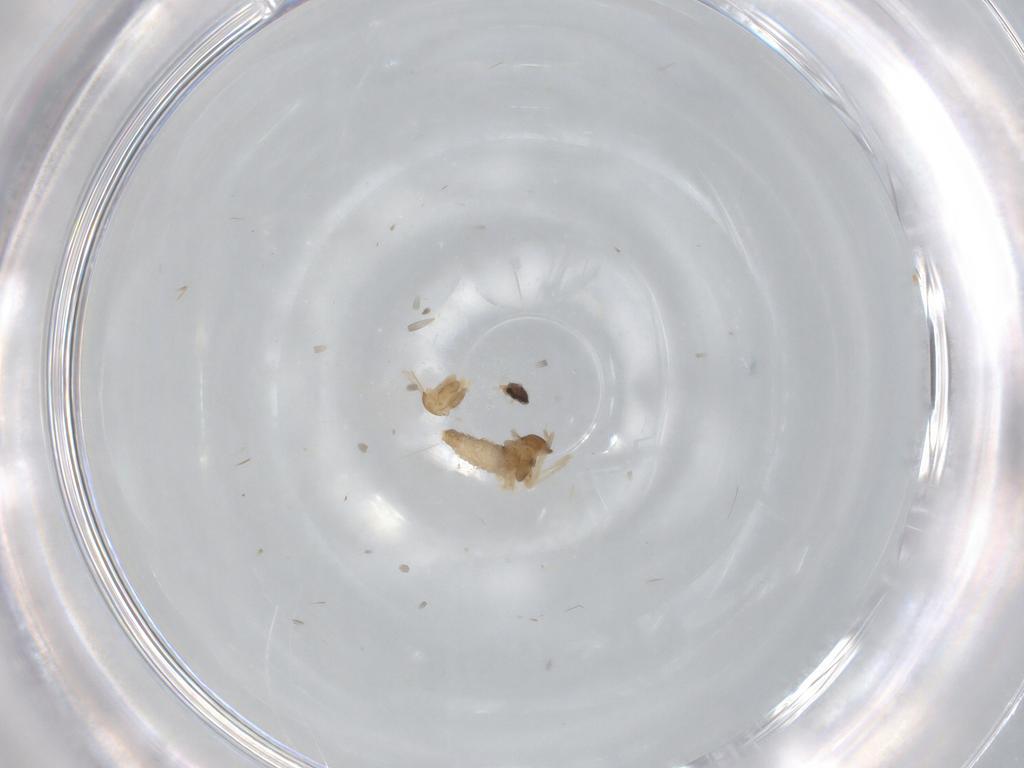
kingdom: Animalia
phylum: Arthropoda
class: Insecta
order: Diptera
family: Cecidomyiidae
